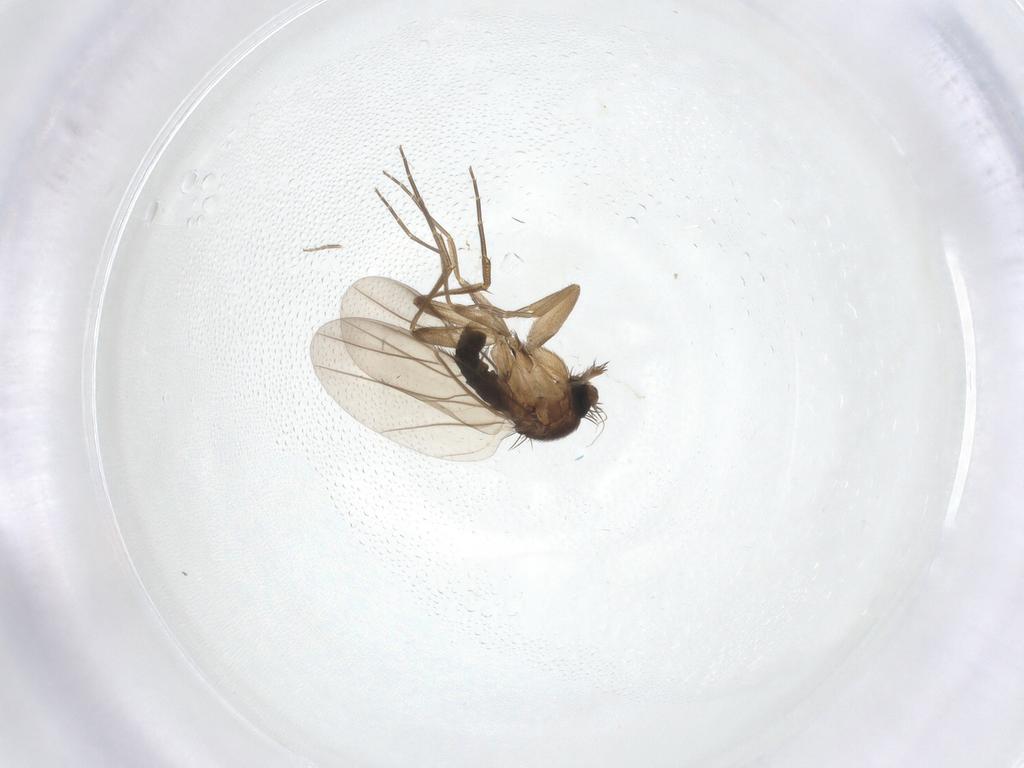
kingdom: Animalia
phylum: Arthropoda
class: Insecta
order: Diptera
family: Phoridae
